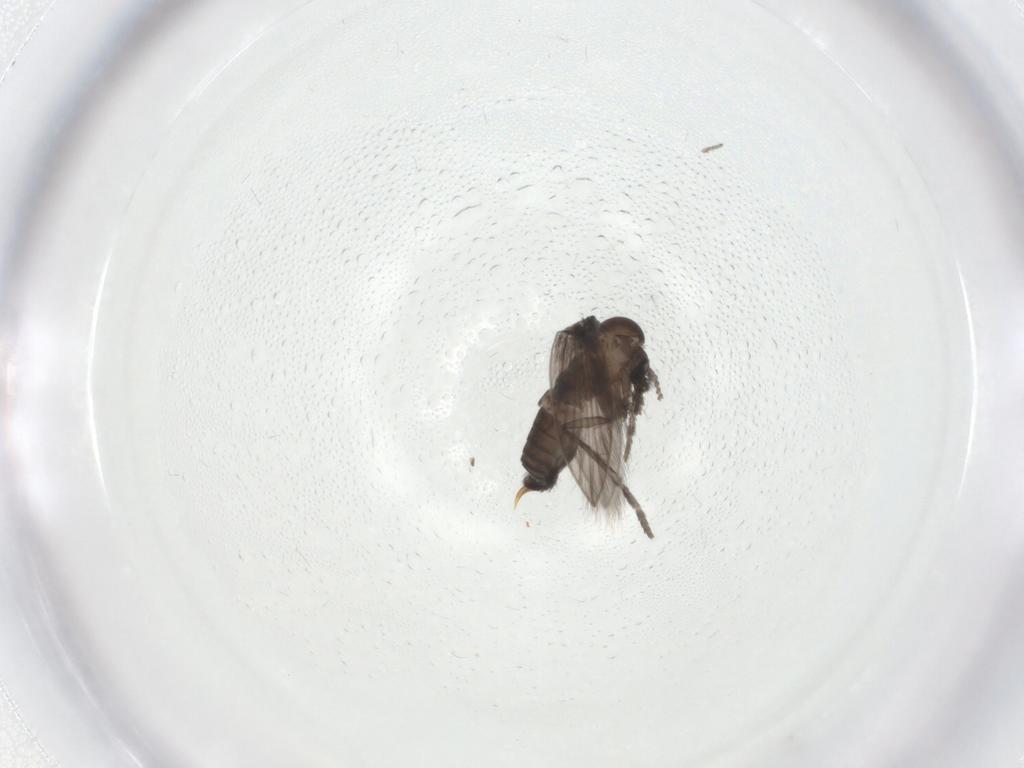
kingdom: Animalia
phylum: Arthropoda
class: Insecta
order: Diptera
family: Psychodidae
